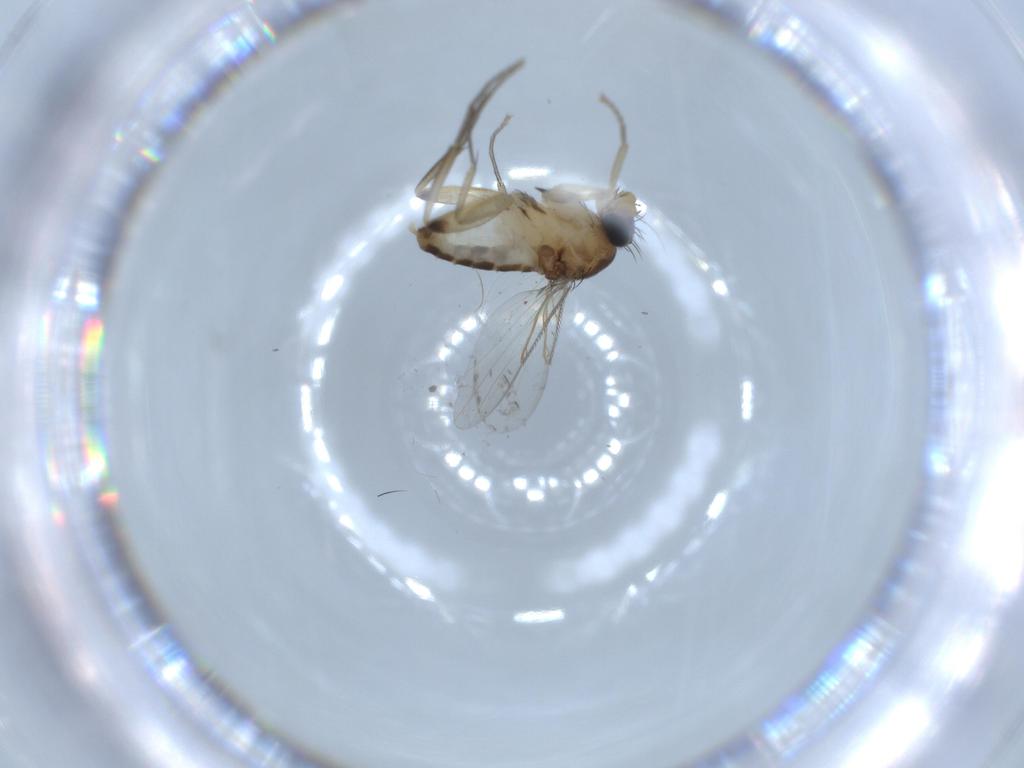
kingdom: Animalia
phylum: Arthropoda
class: Insecta
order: Diptera
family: Phoridae
